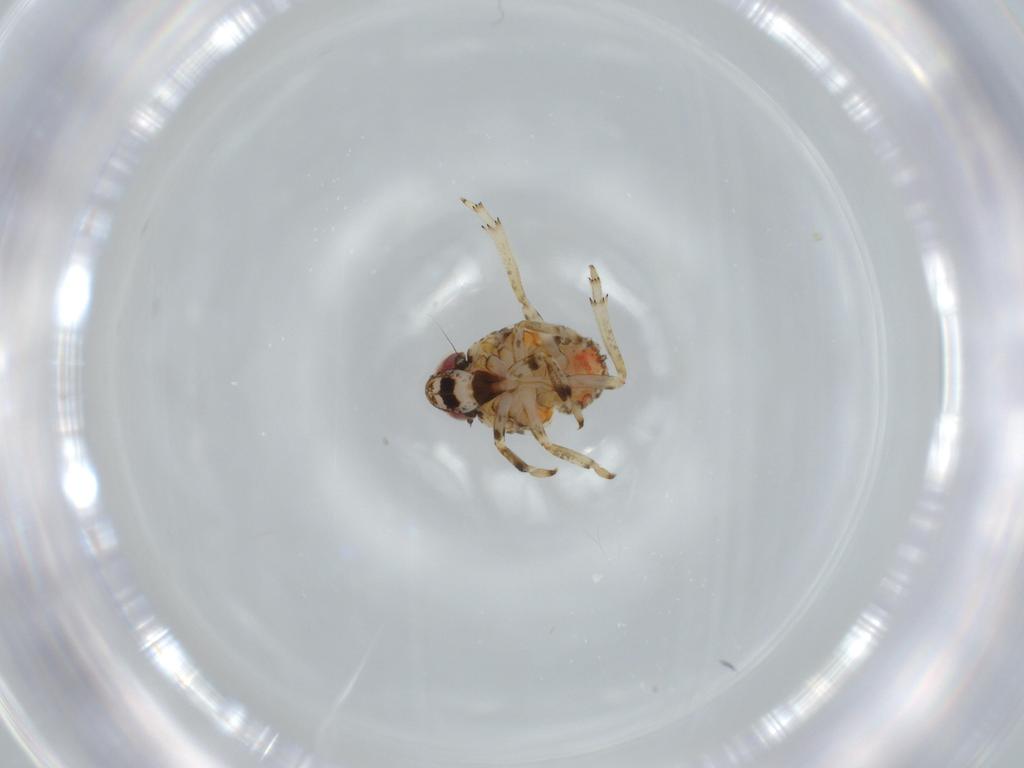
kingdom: Animalia
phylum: Arthropoda
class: Insecta
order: Hemiptera
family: Issidae
